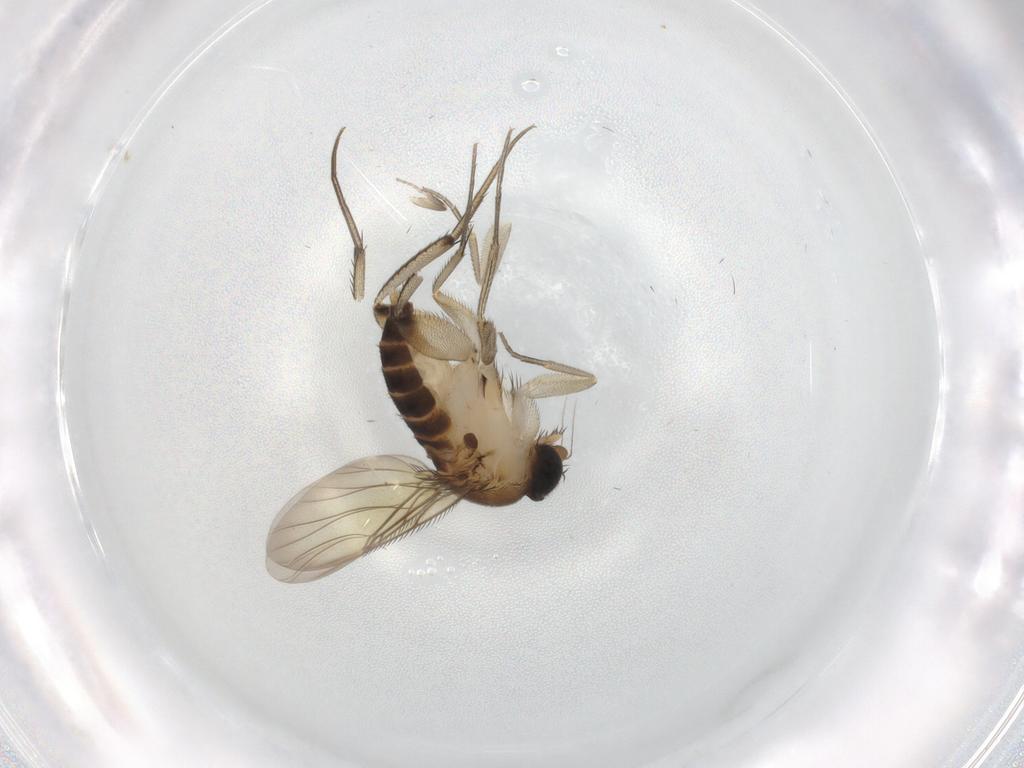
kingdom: Animalia
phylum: Arthropoda
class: Insecta
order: Diptera
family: Phoridae
